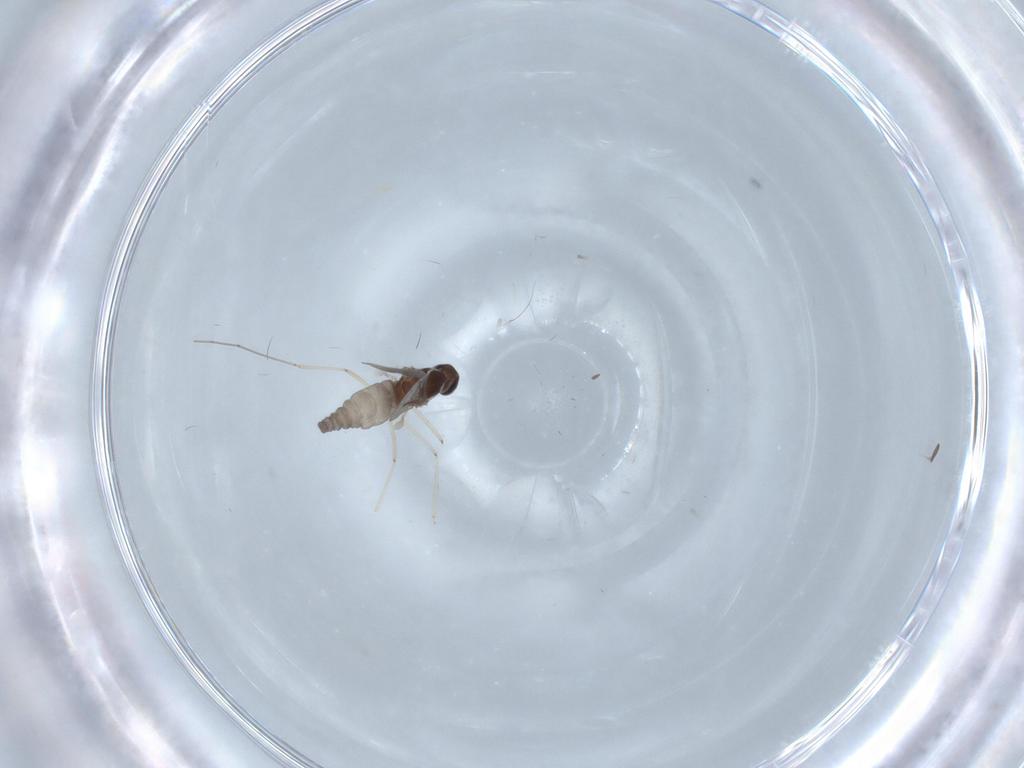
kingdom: Animalia
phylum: Arthropoda
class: Insecta
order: Diptera
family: Cecidomyiidae
